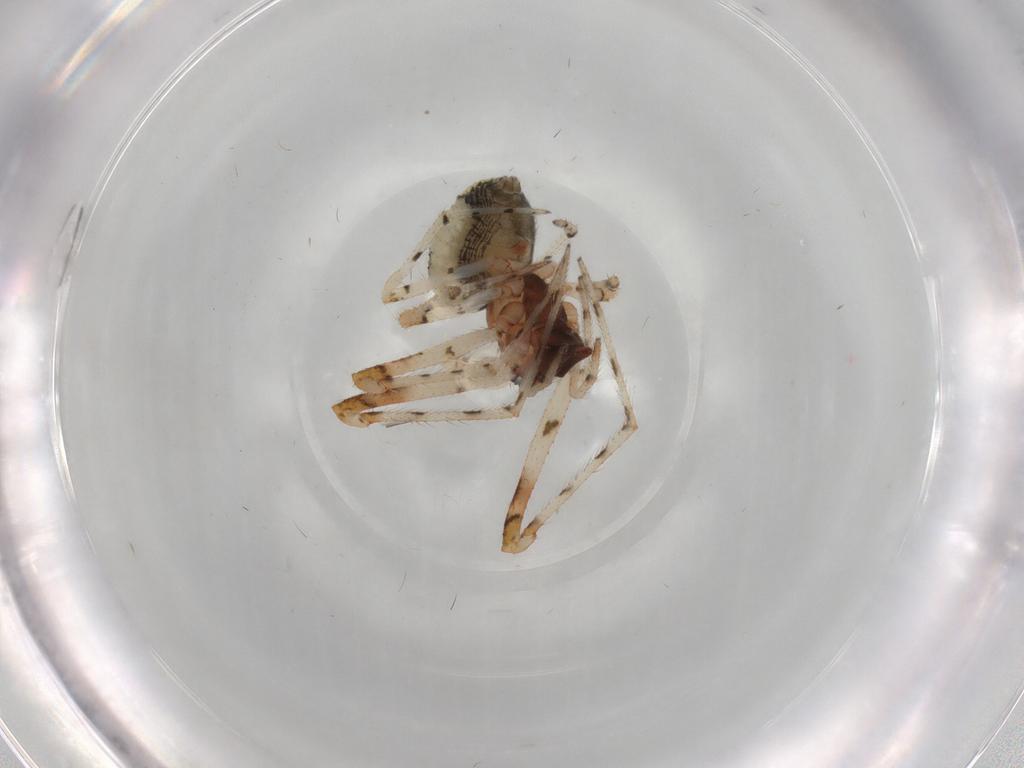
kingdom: Animalia
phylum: Arthropoda
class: Arachnida
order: Araneae
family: Theridiidae
